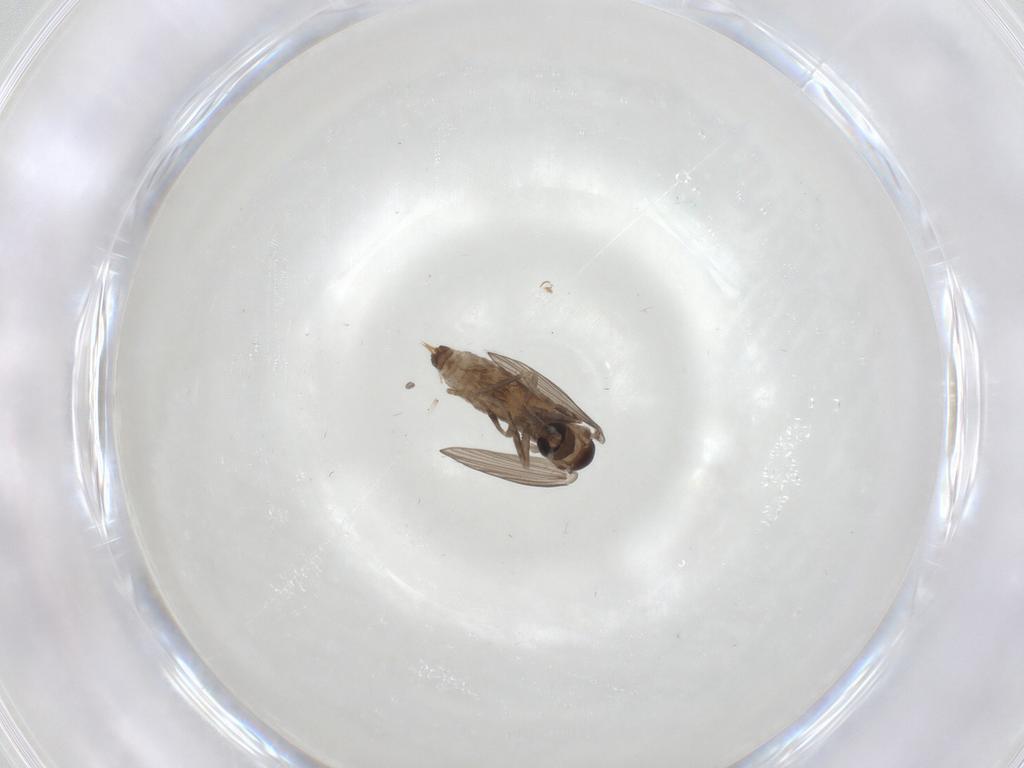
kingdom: Animalia
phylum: Arthropoda
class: Insecta
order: Diptera
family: Psychodidae
